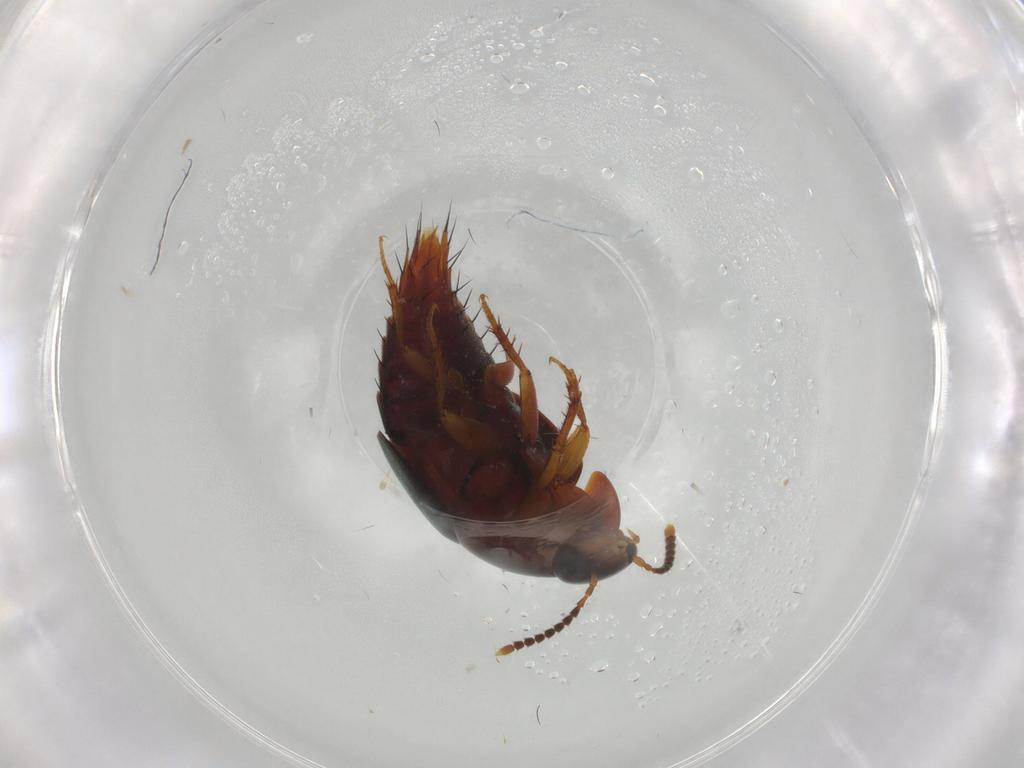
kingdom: Animalia
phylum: Arthropoda
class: Insecta
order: Coleoptera
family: Staphylinidae
